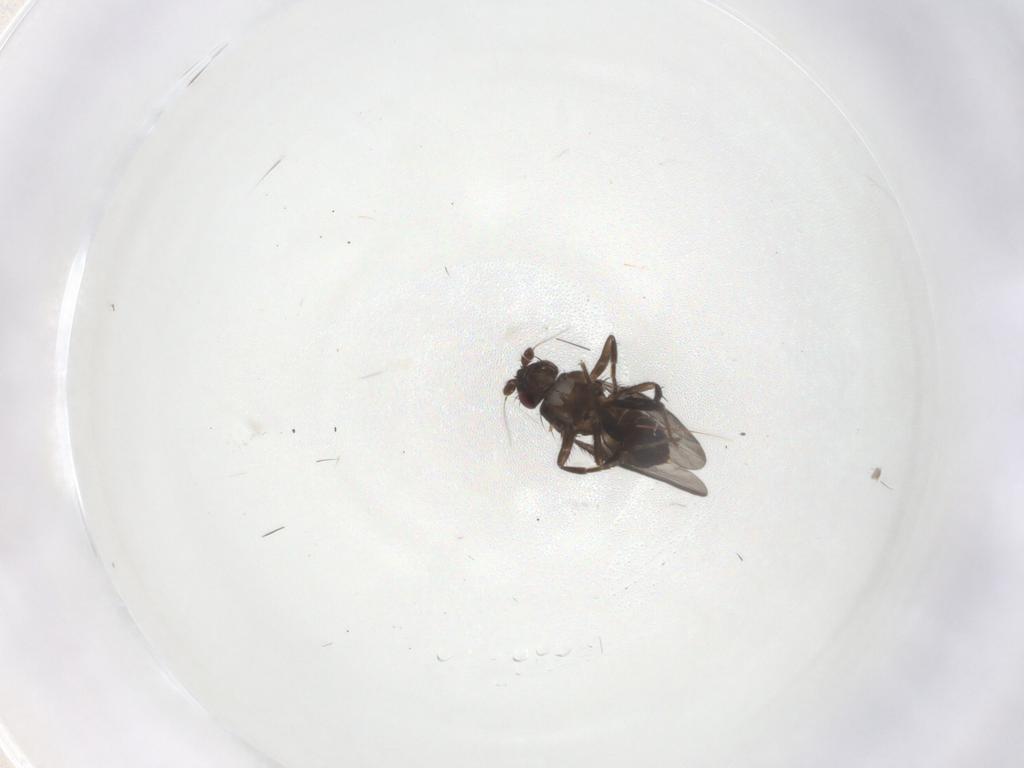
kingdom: Animalia
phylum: Arthropoda
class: Insecta
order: Diptera
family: Sphaeroceridae
